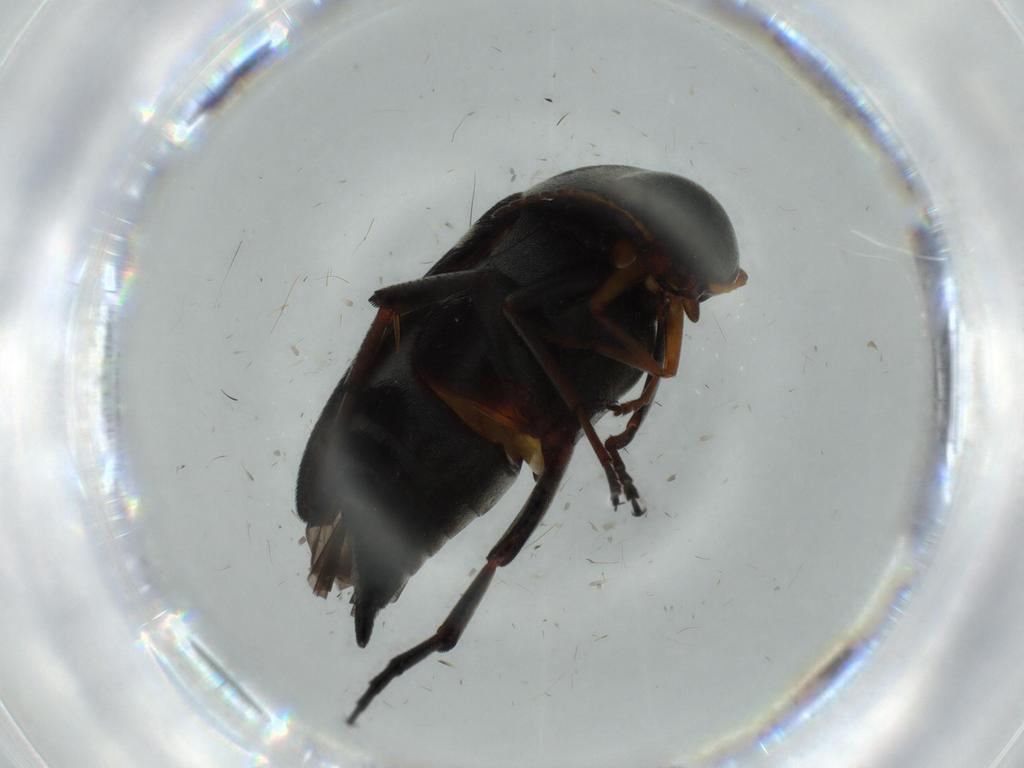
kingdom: Animalia
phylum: Arthropoda
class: Insecta
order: Coleoptera
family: Mordellidae
